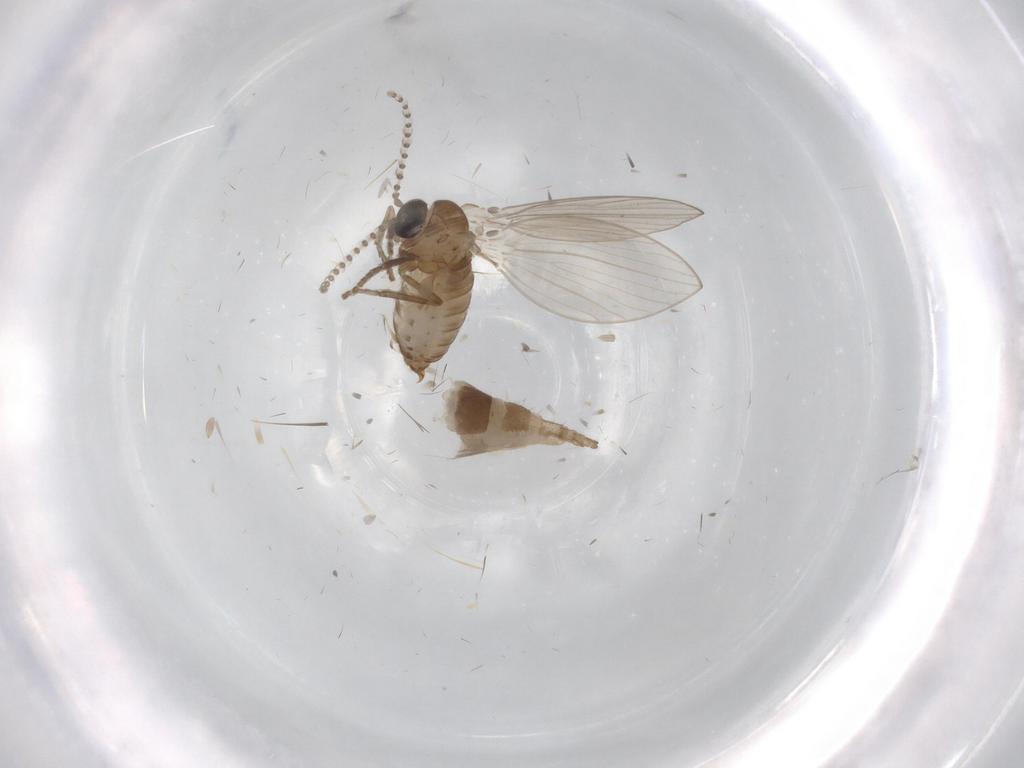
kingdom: Animalia
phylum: Arthropoda
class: Insecta
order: Diptera
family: Sciaridae
